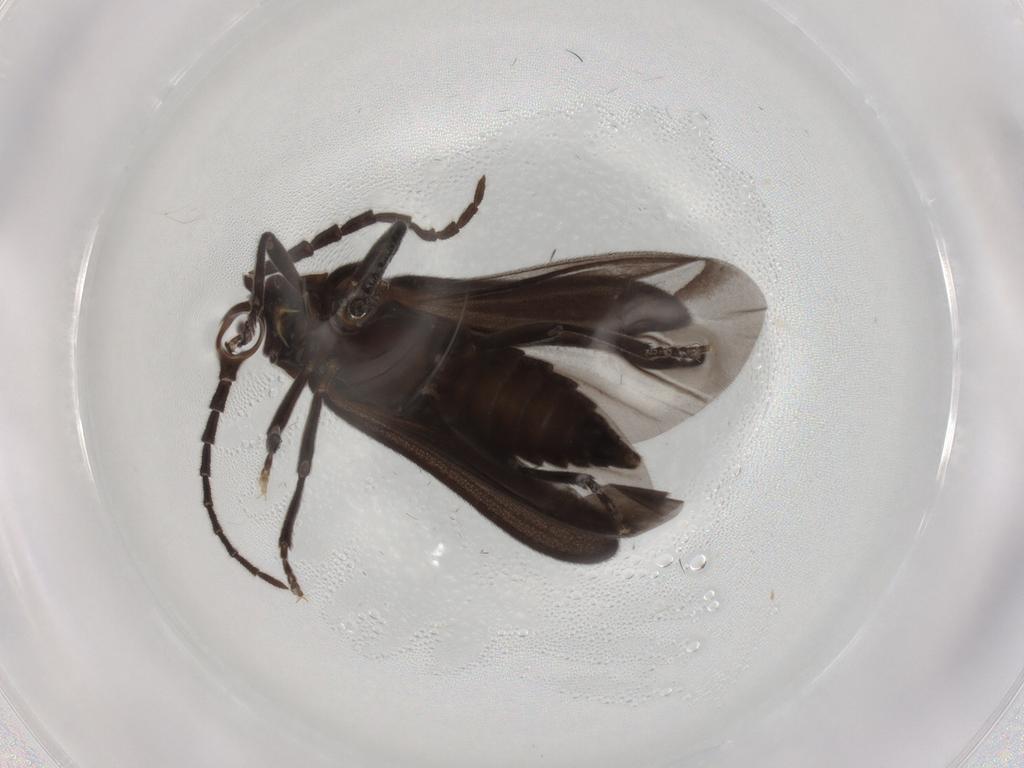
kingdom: Animalia
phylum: Arthropoda
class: Insecta
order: Coleoptera
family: Lycidae
